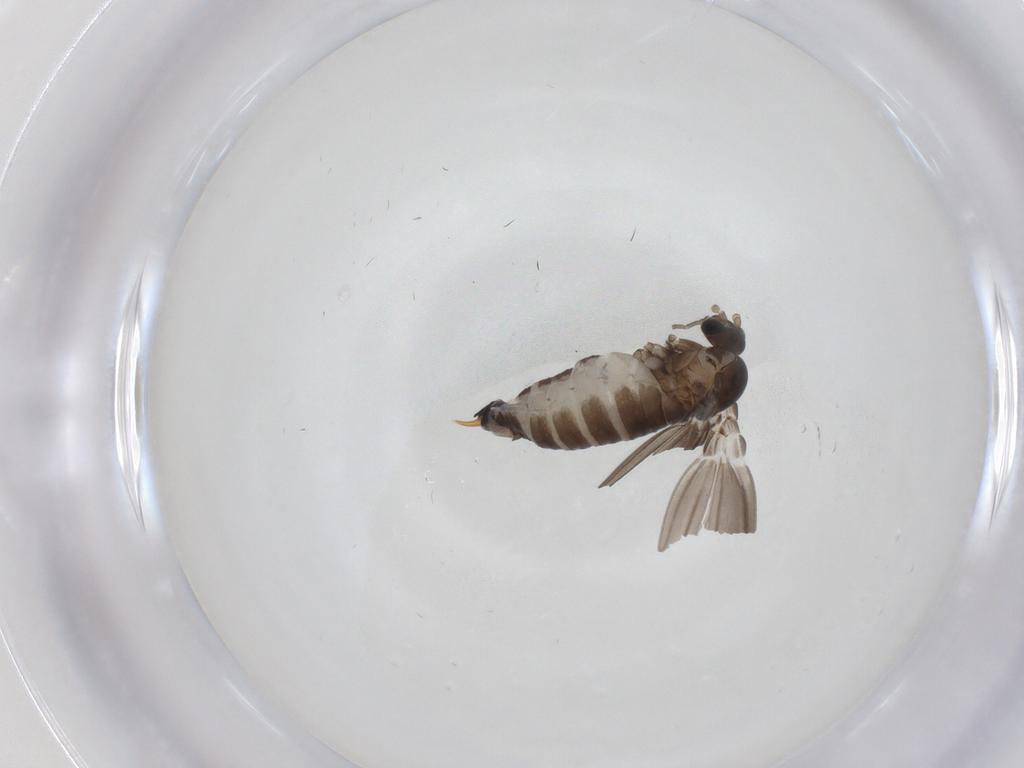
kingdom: Animalia
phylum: Arthropoda
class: Insecta
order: Diptera
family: Psychodidae
